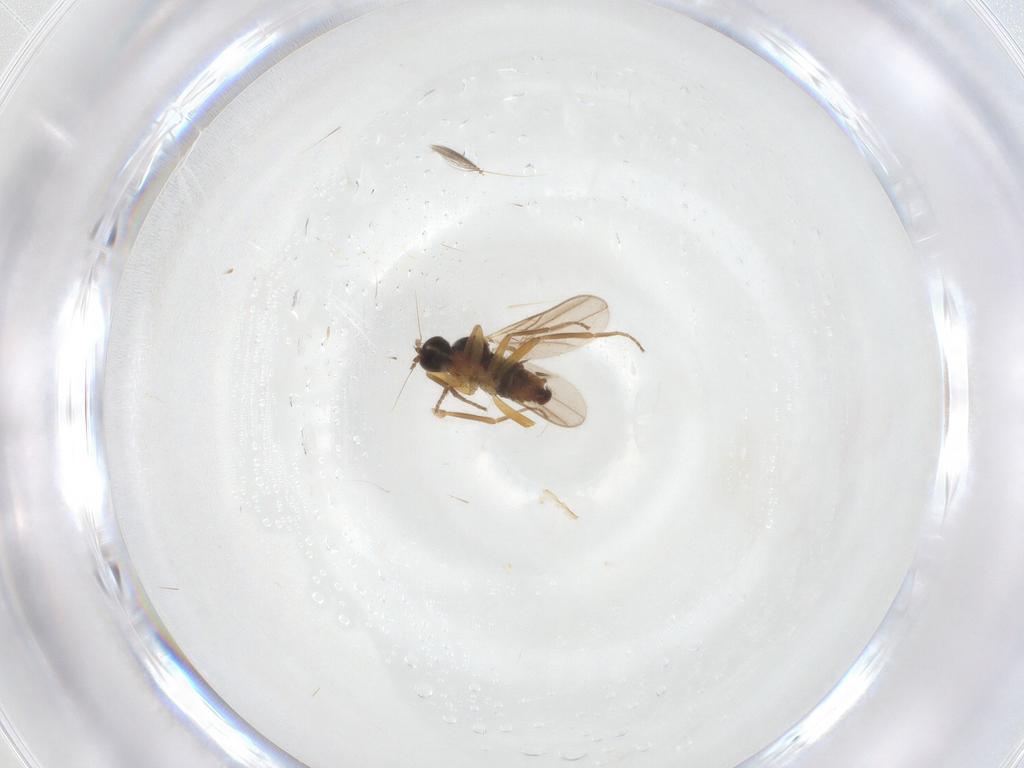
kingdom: Animalia
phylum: Arthropoda
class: Insecta
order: Diptera
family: Hybotidae
